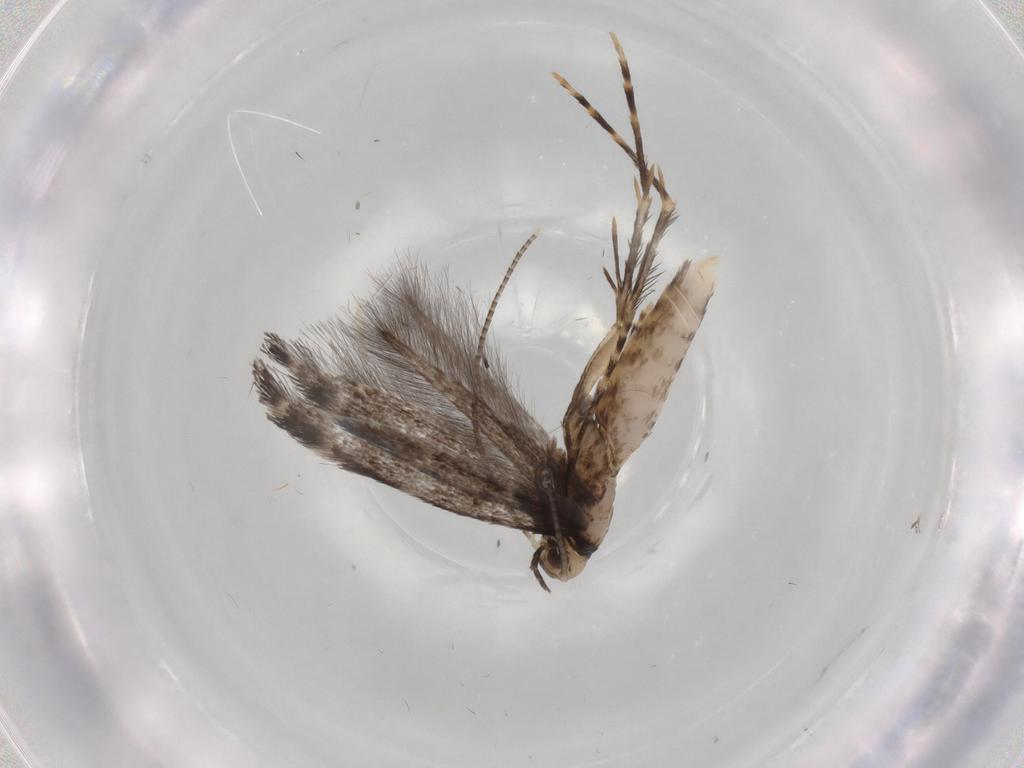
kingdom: Animalia
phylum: Arthropoda
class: Insecta
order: Lepidoptera
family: Gracillariidae
